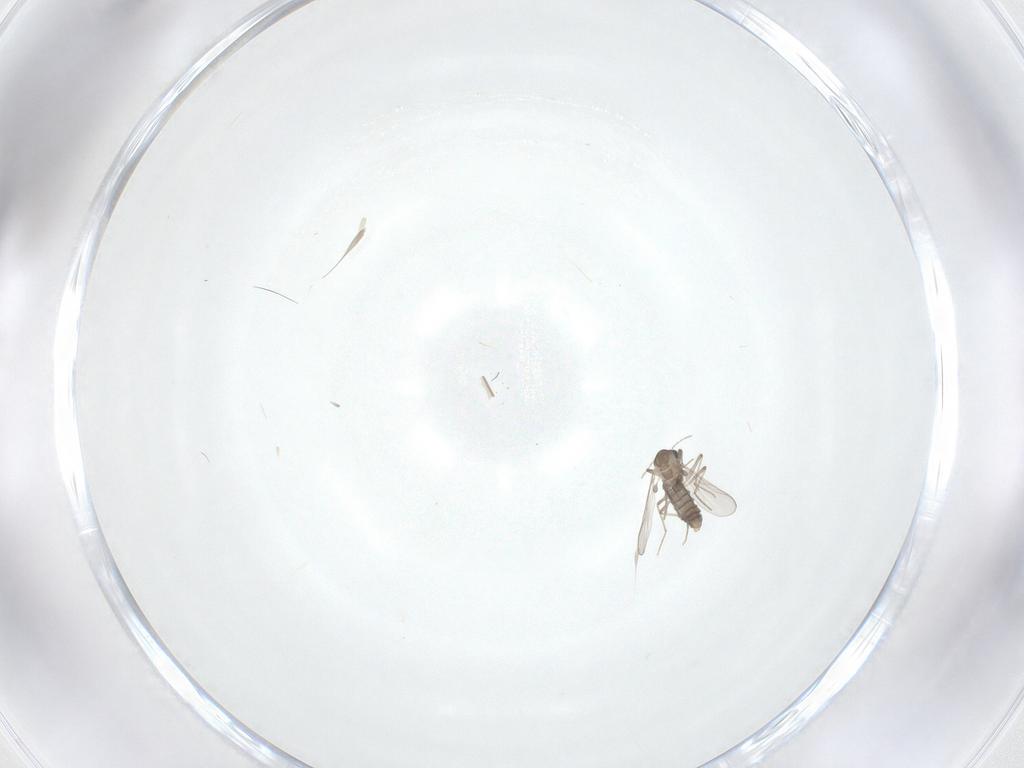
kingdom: Animalia
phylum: Arthropoda
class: Insecta
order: Diptera
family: Chironomidae
